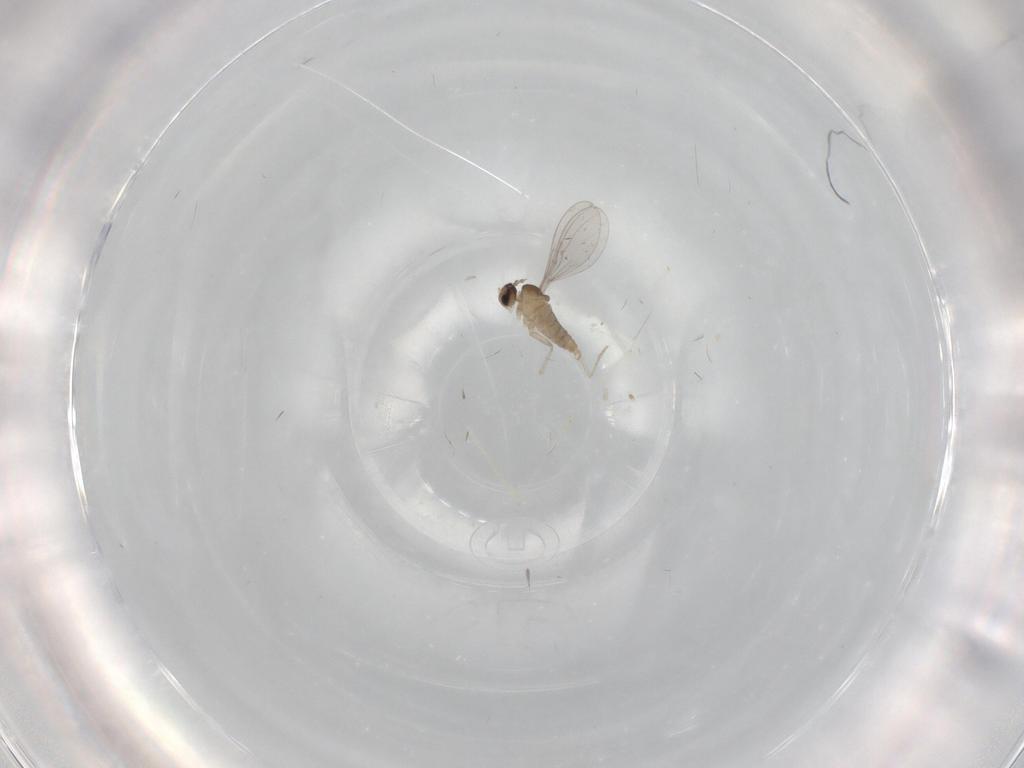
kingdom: Animalia
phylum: Arthropoda
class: Insecta
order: Diptera
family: Cecidomyiidae
